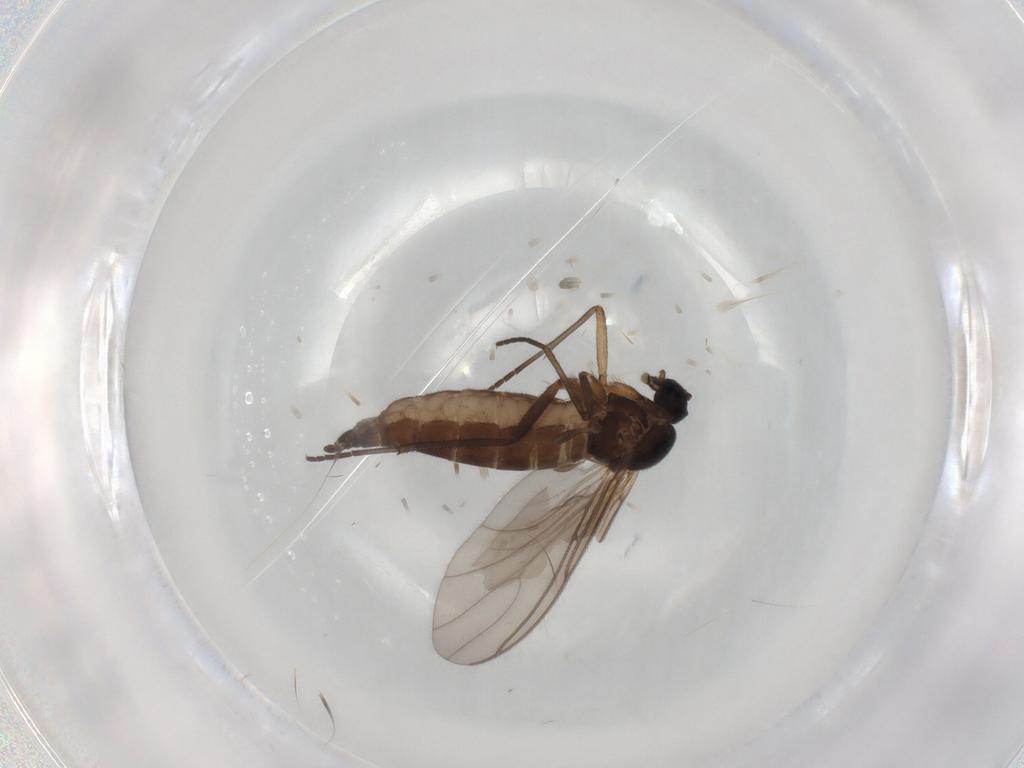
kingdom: Animalia
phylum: Arthropoda
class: Insecta
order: Diptera
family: Sciaridae
